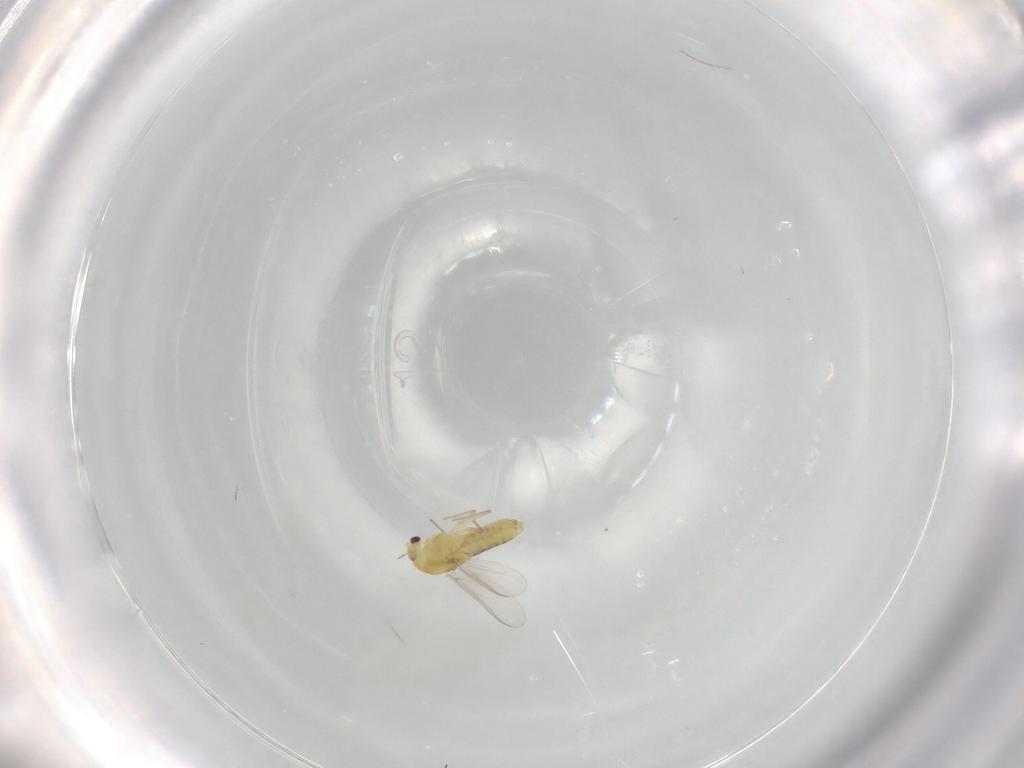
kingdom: Animalia
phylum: Arthropoda
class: Insecta
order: Diptera
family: Chironomidae
